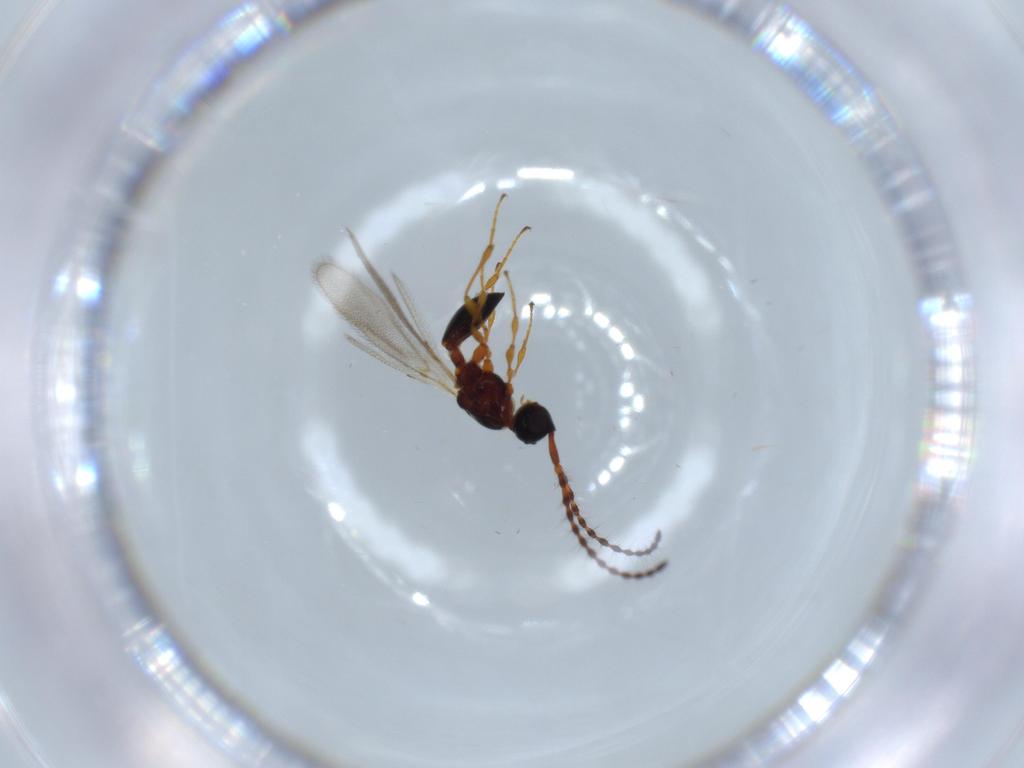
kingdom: Animalia
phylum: Arthropoda
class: Insecta
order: Hymenoptera
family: Diapriidae
